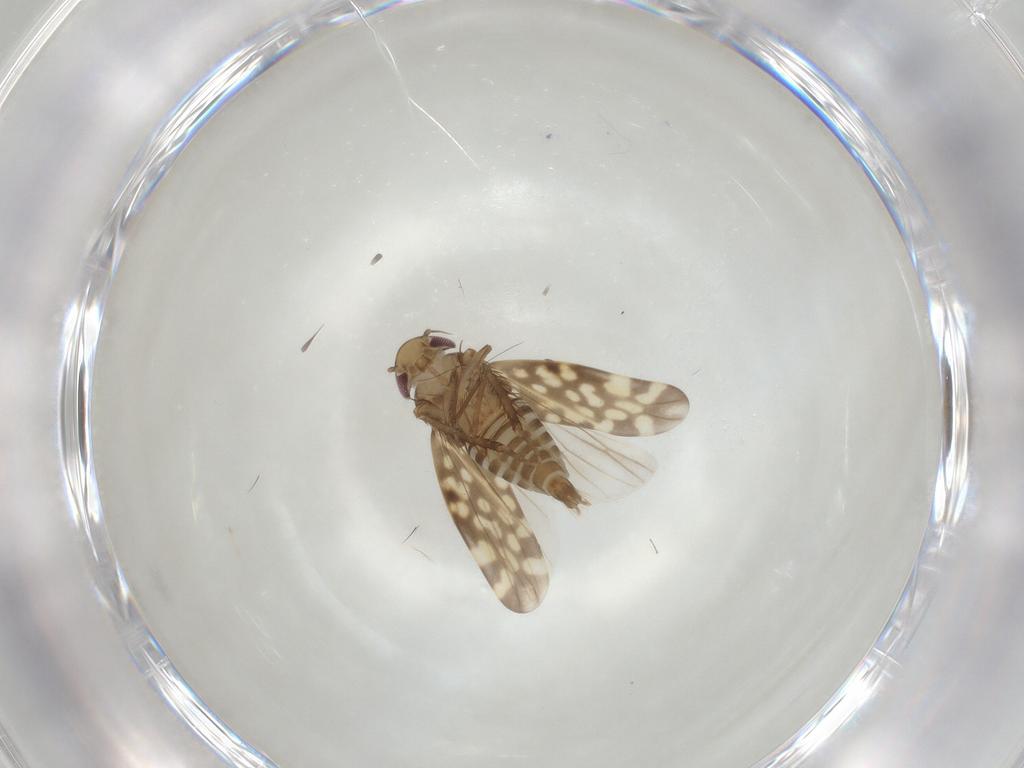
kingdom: Animalia
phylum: Arthropoda
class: Insecta
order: Hemiptera
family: Cicadellidae
